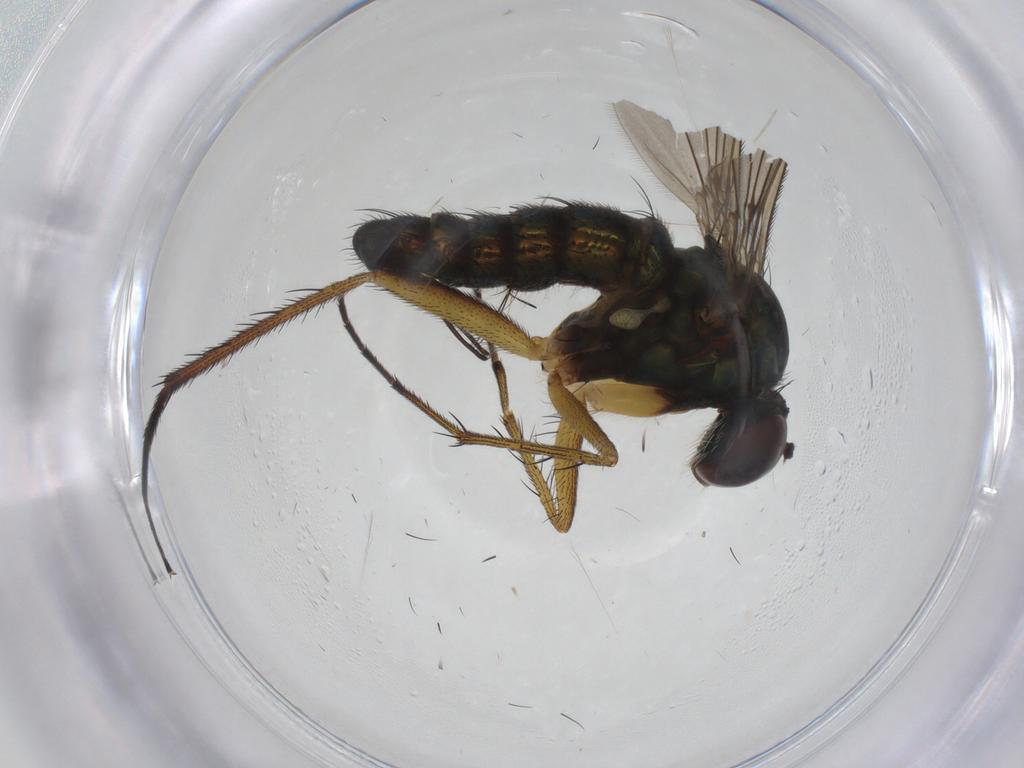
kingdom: Animalia
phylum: Arthropoda
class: Insecta
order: Diptera
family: Dolichopodidae
